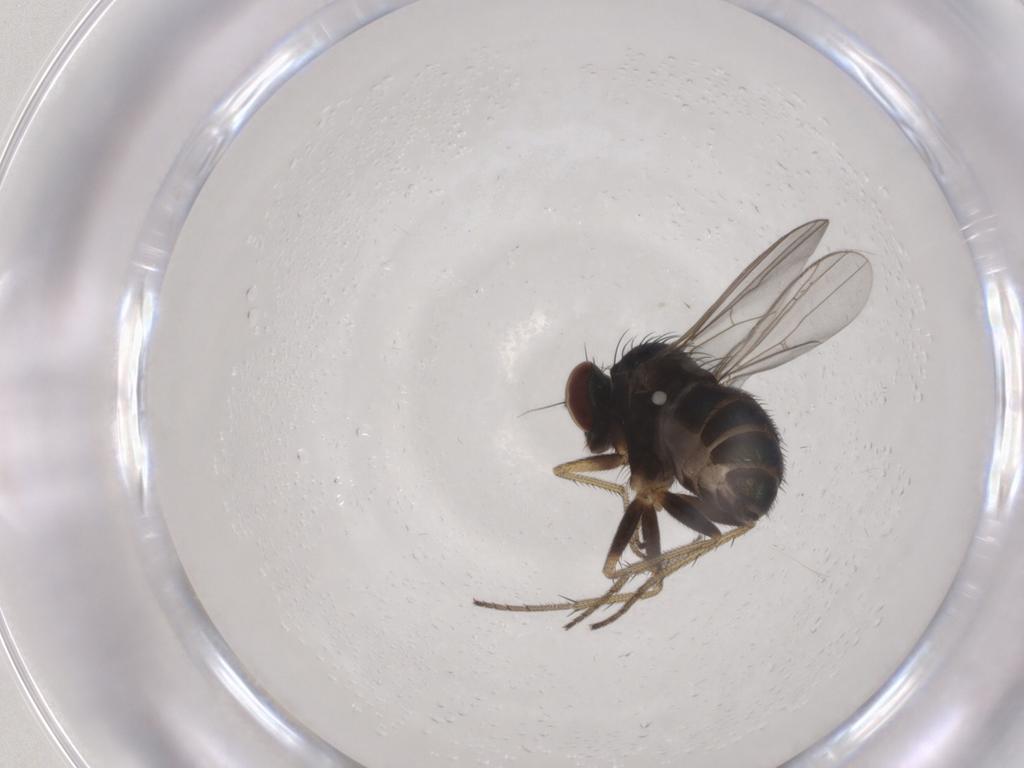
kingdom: Animalia
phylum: Arthropoda
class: Insecta
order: Diptera
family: Dolichopodidae
